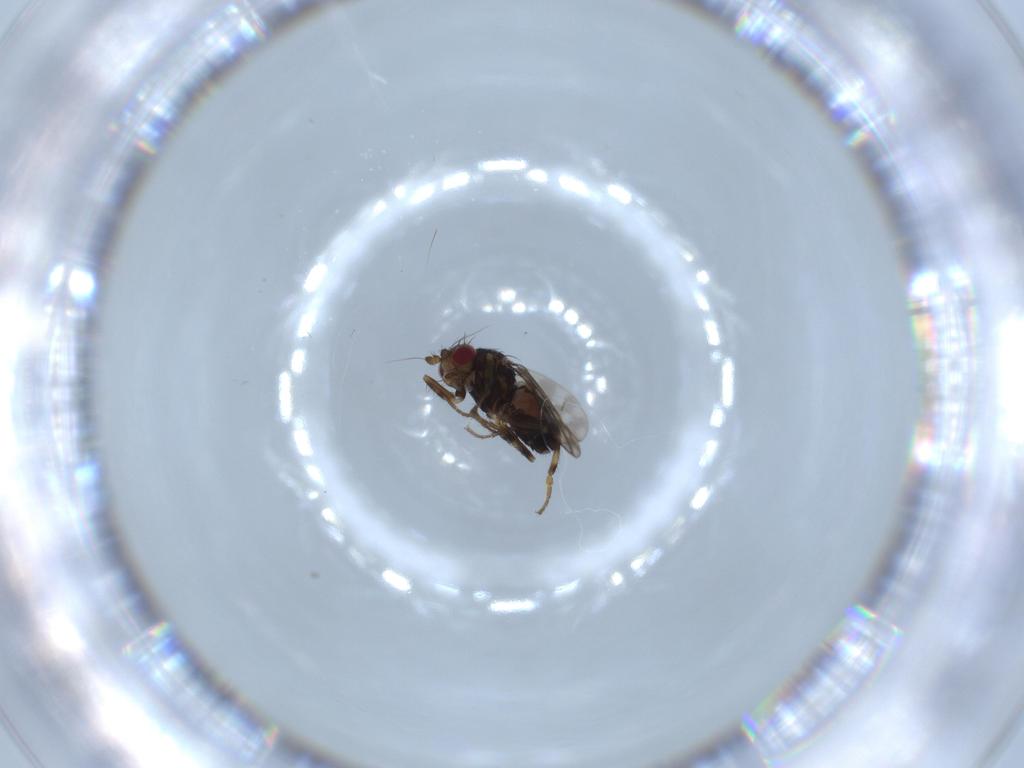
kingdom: Animalia
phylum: Arthropoda
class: Insecta
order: Diptera
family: Sphaeroceridae
